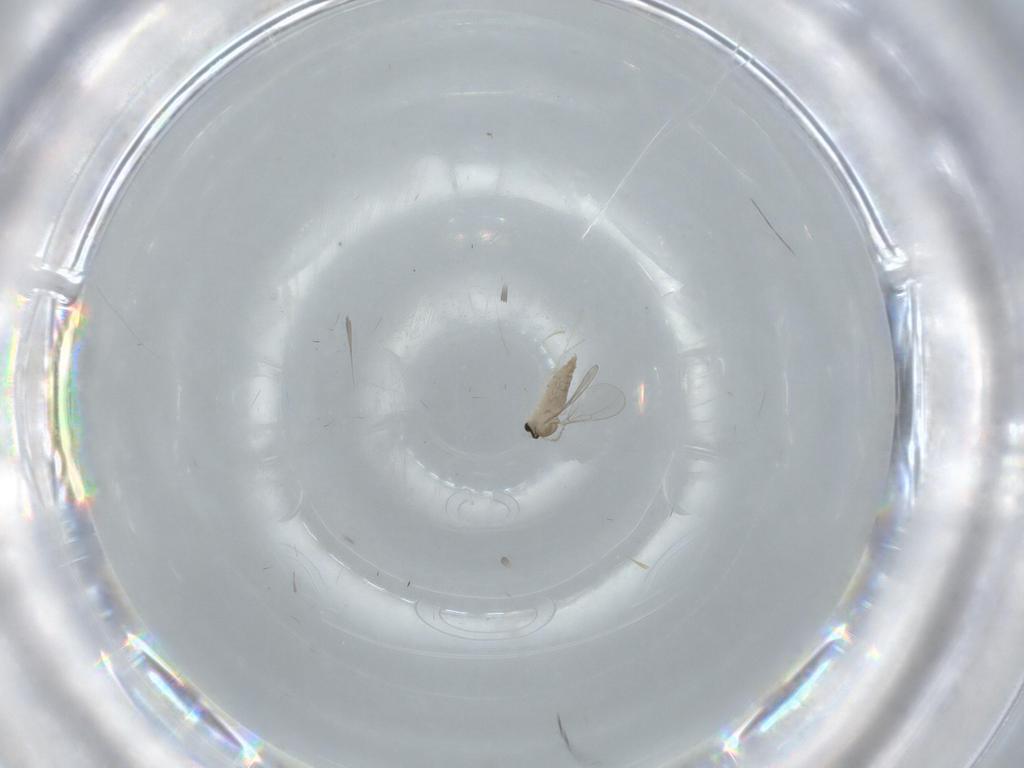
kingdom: Animalia
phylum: Arthropoda
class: Insecta
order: Diptera
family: Cecidomyiidae
